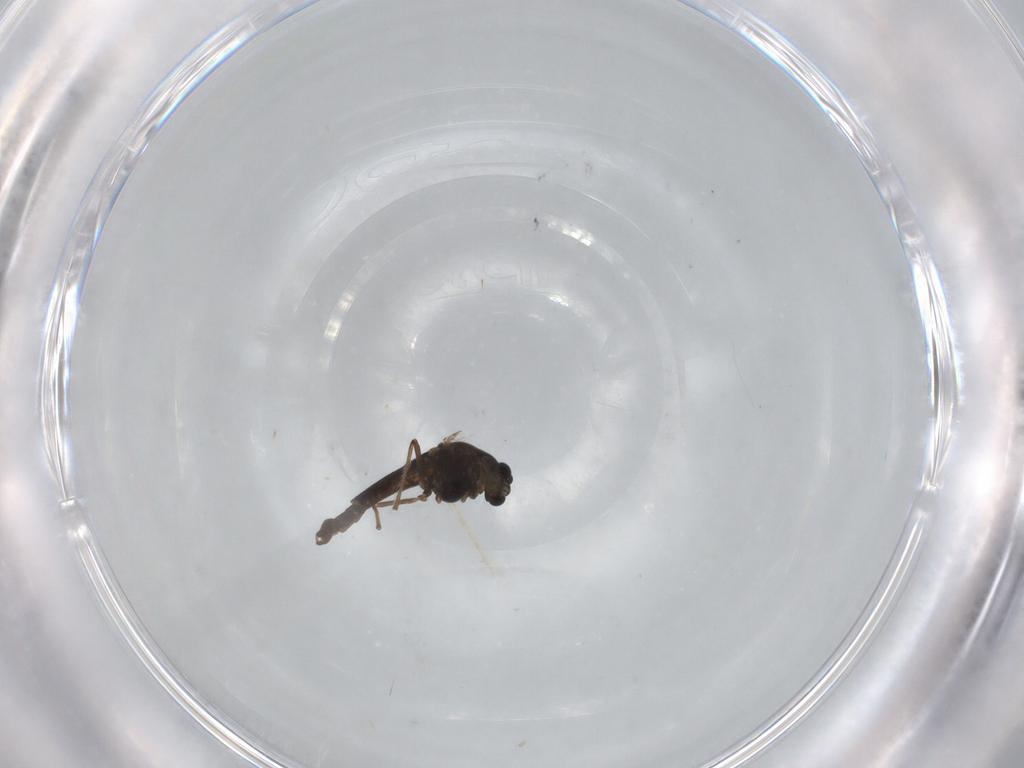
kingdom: Animalia
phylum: Arthropoda
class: Insecta
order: Diptera
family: Chironomidae
